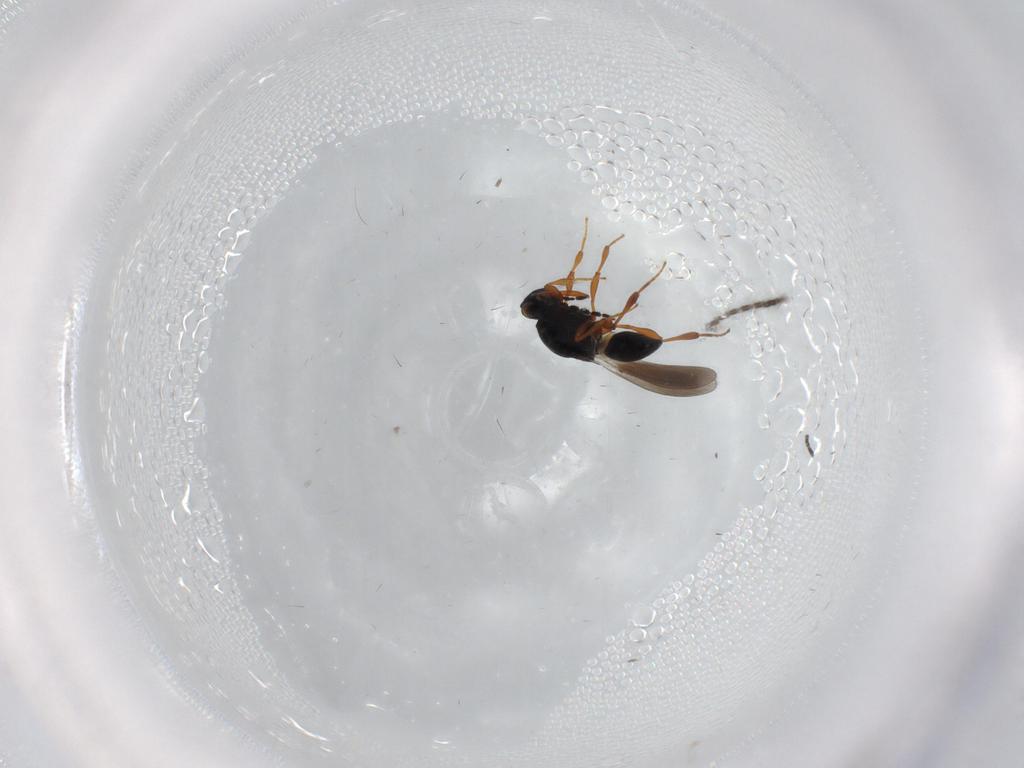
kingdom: Animalia
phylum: Arthropoda
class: Insecta
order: Hymenoptera
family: Platygastridae
